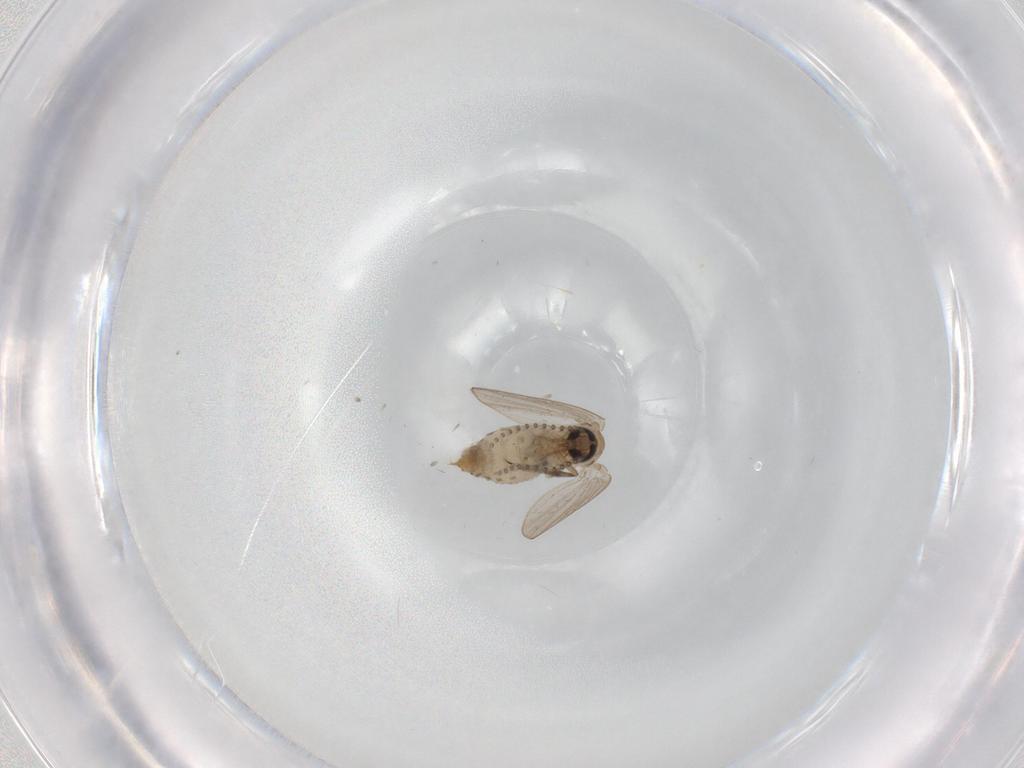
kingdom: Animalia
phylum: Arthropoda
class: Insecta
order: Diptera
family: Psychodidae
